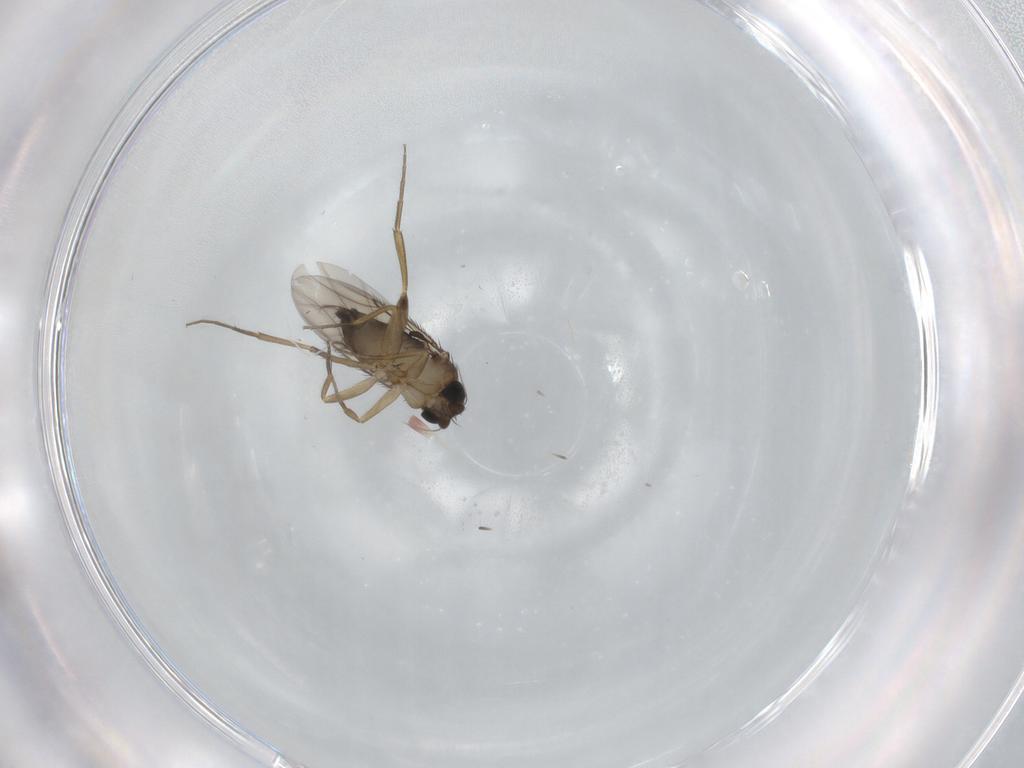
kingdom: Animalia
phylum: Arthropoda
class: Insecta
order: Diptera
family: Phoridae
